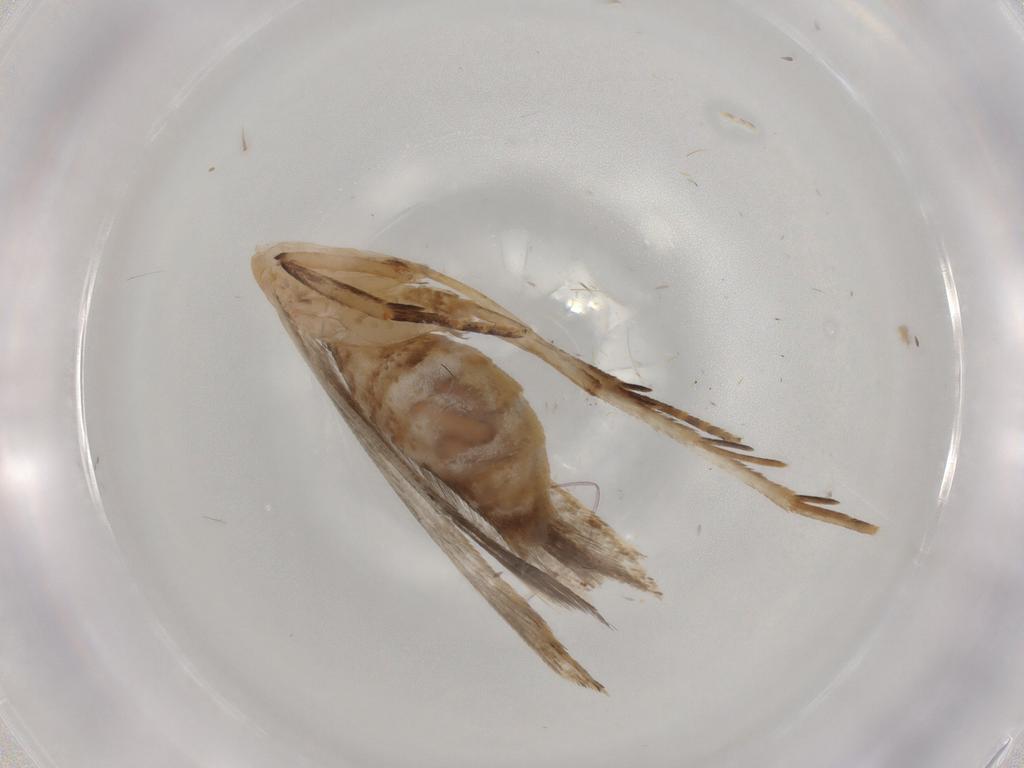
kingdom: Animalia
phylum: Arthropoda
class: Insecta
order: Lepidoptera
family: Gelechiidae
